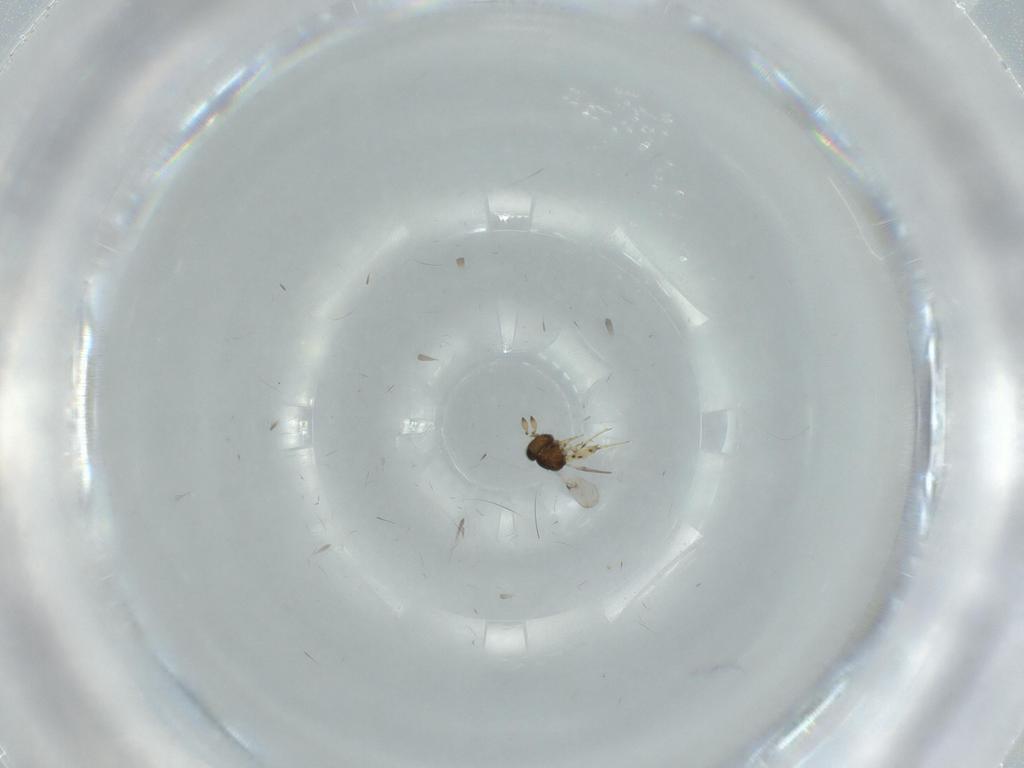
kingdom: Animalia
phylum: Arthropoda
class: Insecta
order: Hymenoptera
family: Scelionidae
